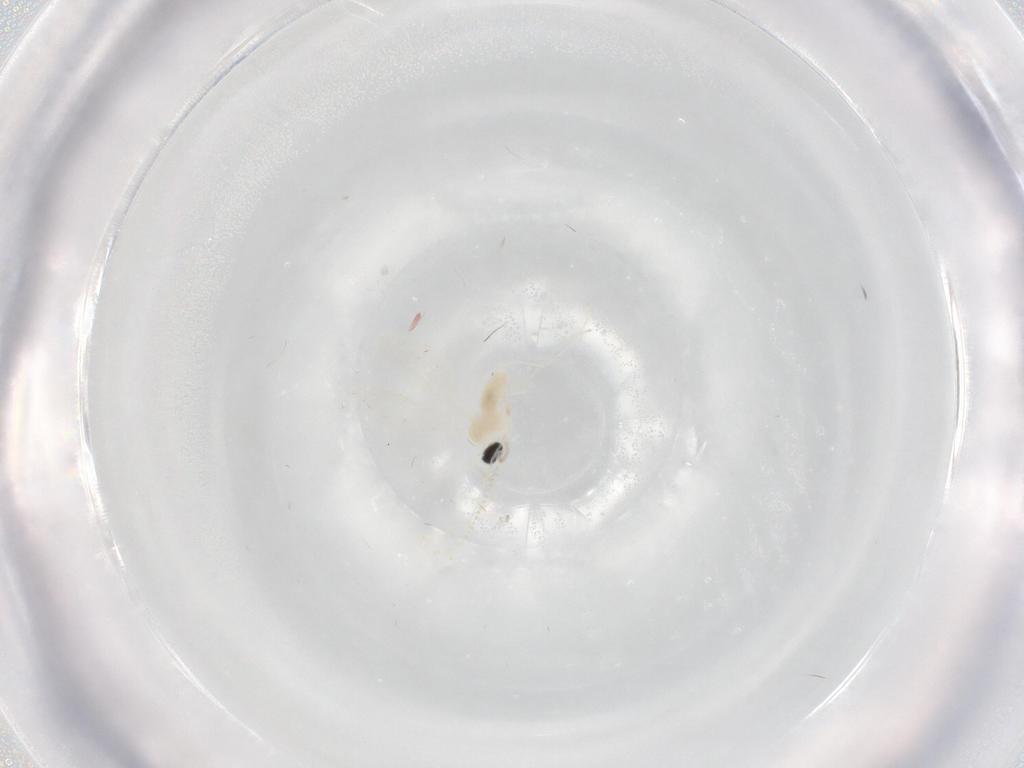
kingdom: Animalia
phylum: Arthropoda
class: Insecta
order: Diptera
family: Cecidomyiidae
